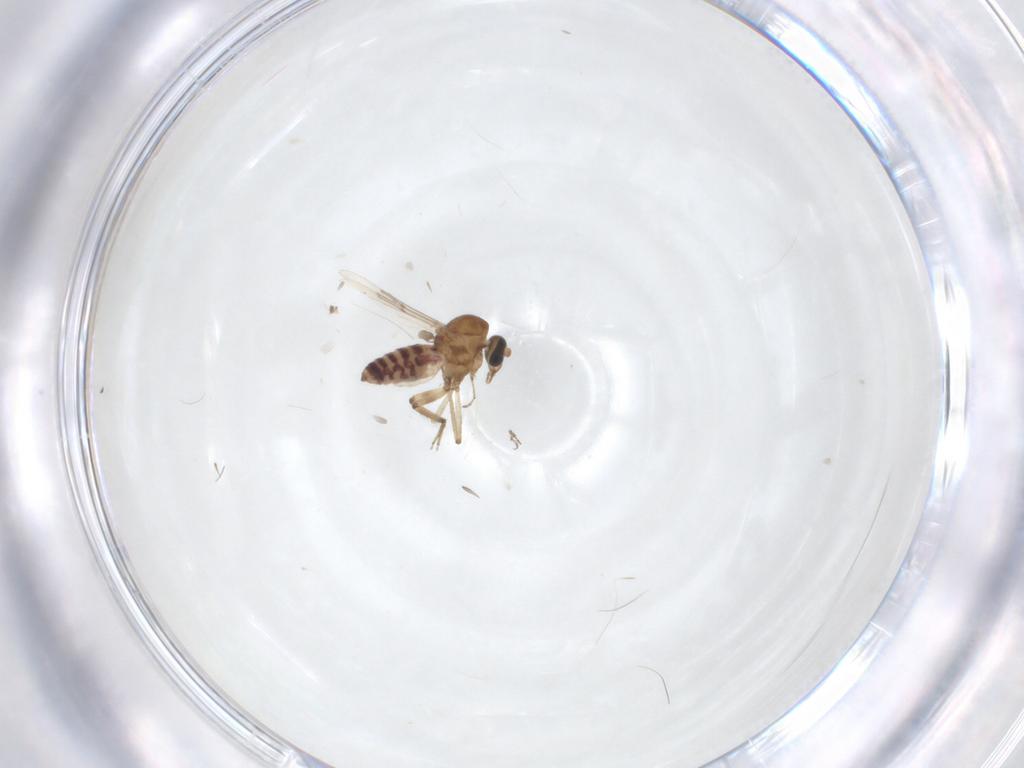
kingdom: Animalia
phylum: Arthropoda
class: Insecta
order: Diptera
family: Ceratopogonidae
